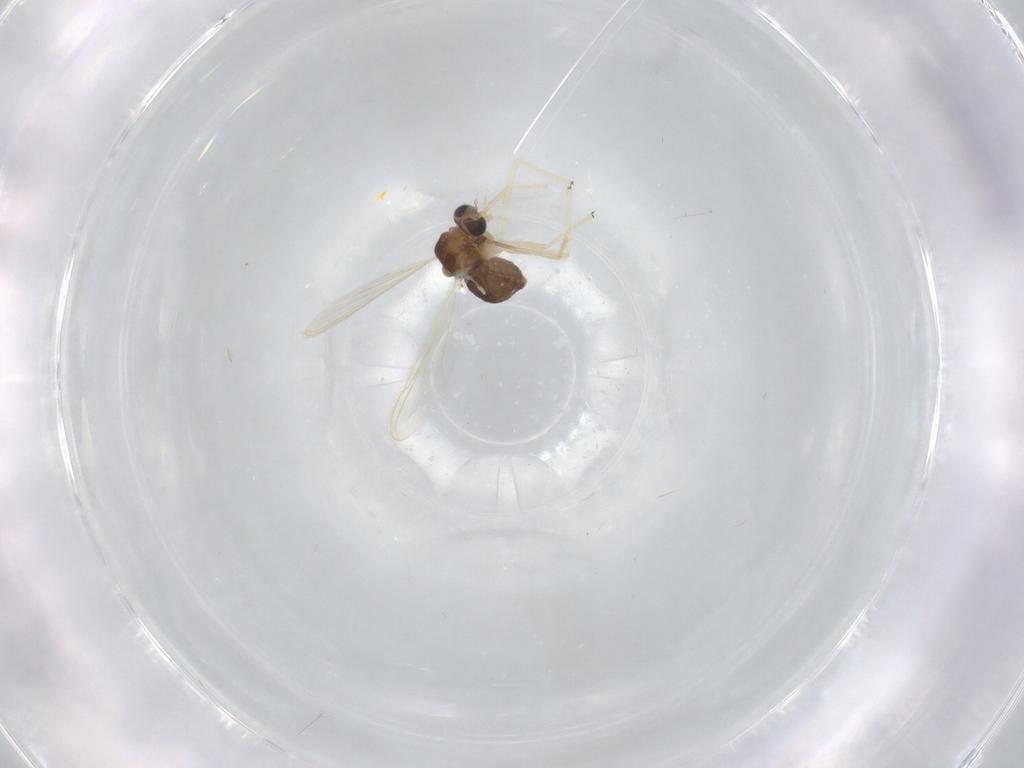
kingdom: Animalia
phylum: Arthropoda
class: Insecta
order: Diptera
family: Chironomidae
